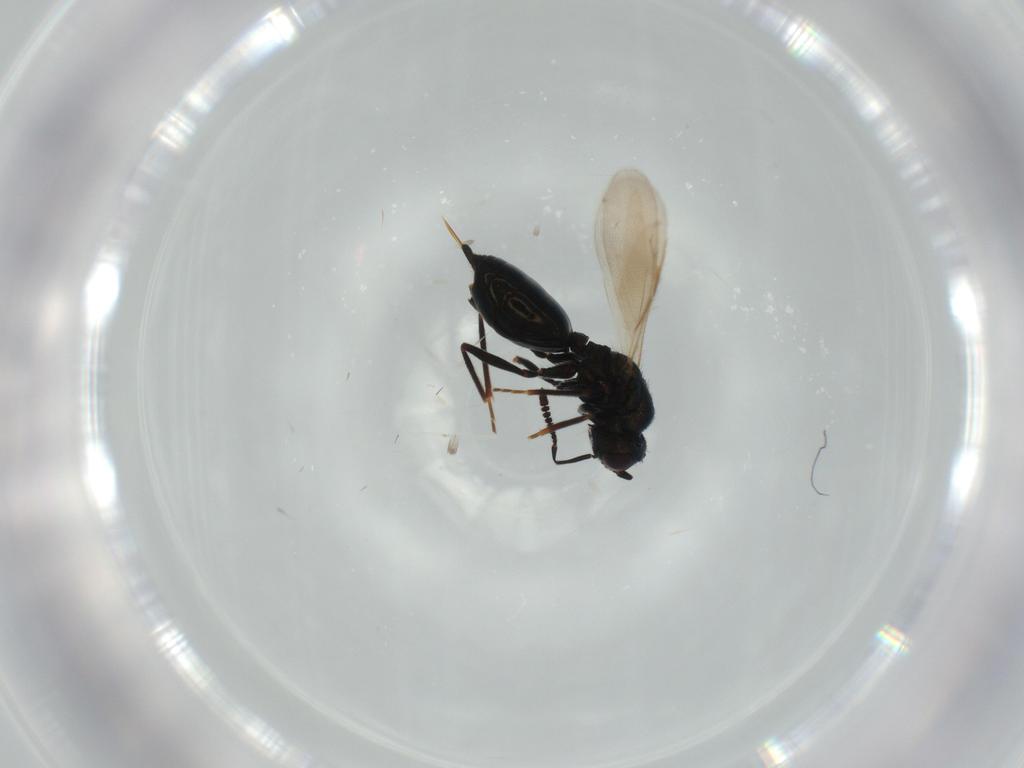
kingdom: Animalia
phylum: Arthropoda
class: Insecta
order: Hymenoptera
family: Chalcidoidea_incertae_sedis
